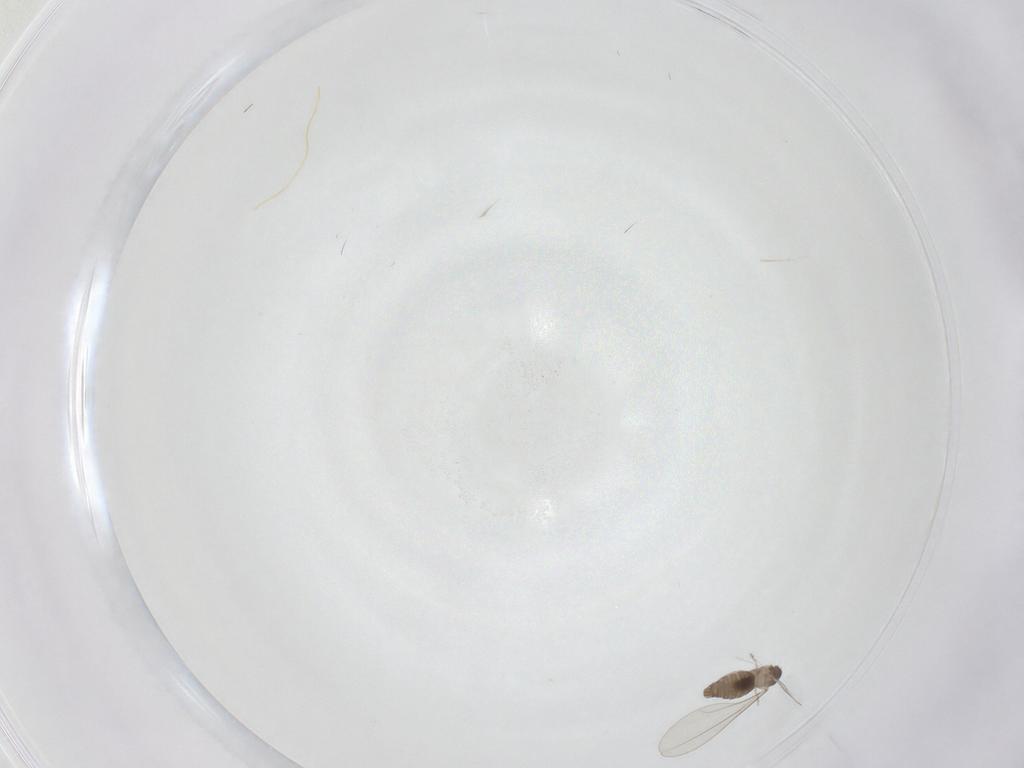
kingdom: Animalia
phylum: Arthropoda
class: Insecta
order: Diptera
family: Cecidomyiidae
